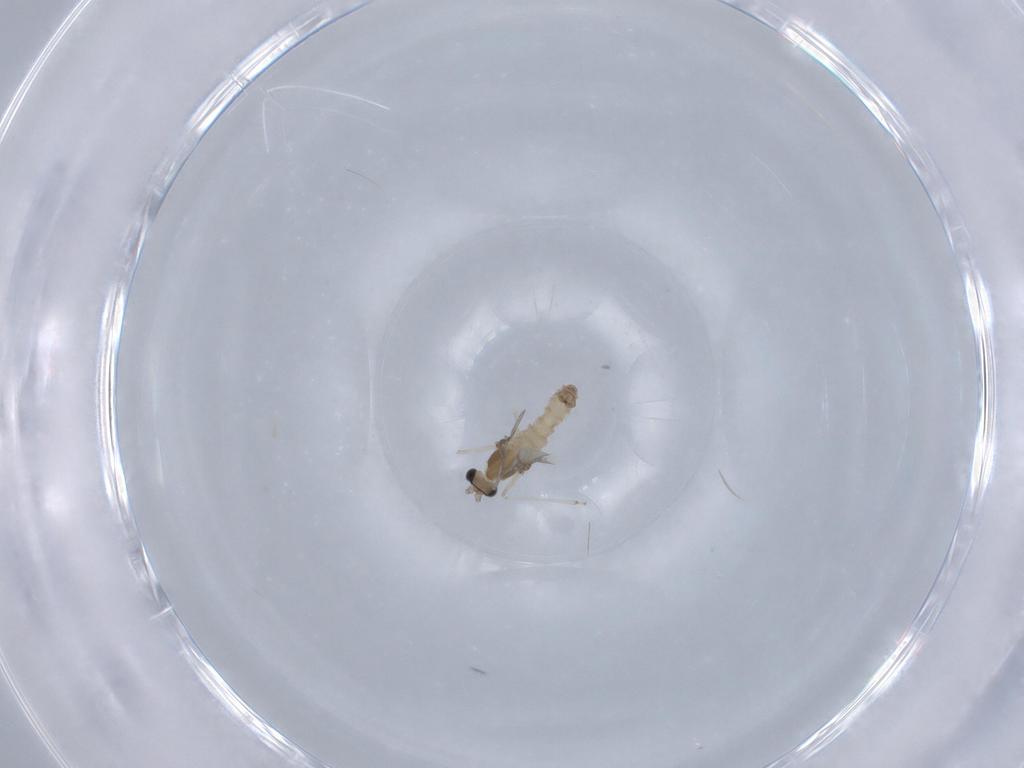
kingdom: Animalia
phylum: Arthropoda
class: Insecta
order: Diptera
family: Cecidomyiidae
